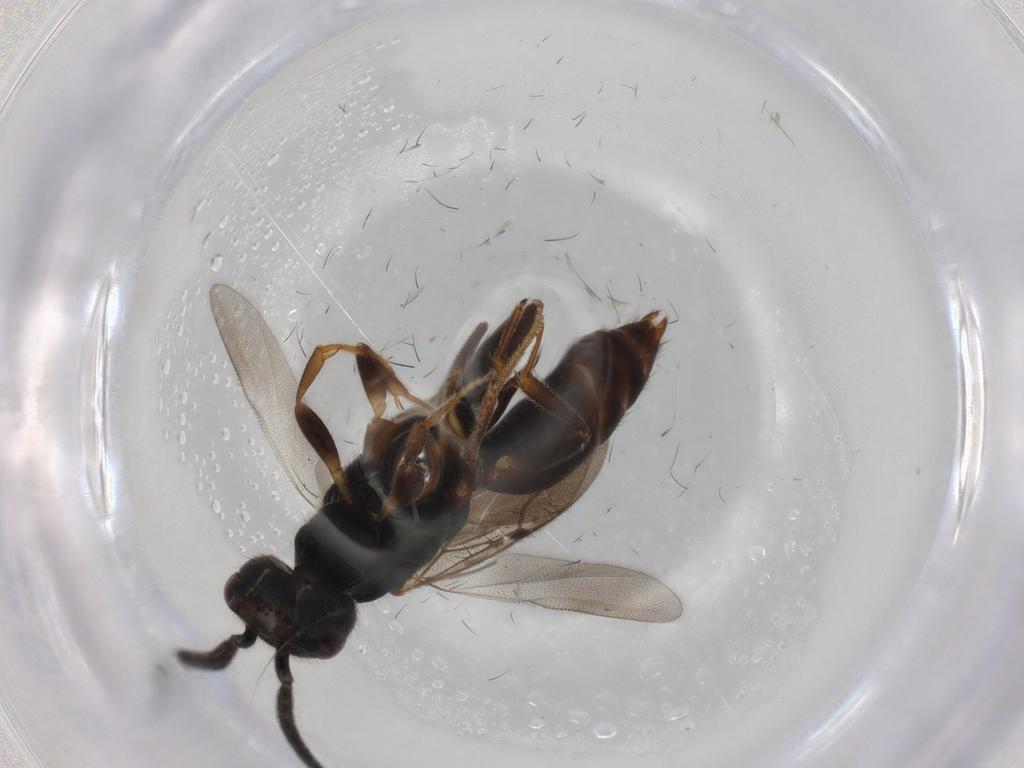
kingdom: Animalia
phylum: Arthropoda
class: Insecta
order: Hymenoptera
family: Bethylidae
